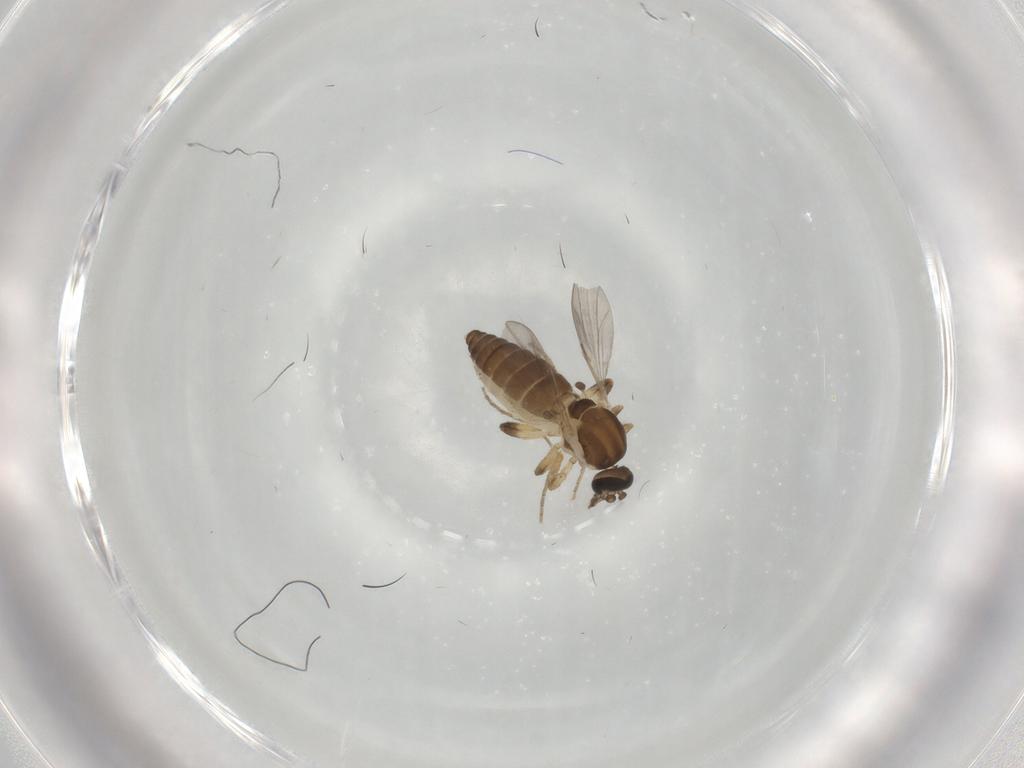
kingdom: Animalia
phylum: Arthropoda
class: Insecta
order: Diptera
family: Ceratopogonidae
